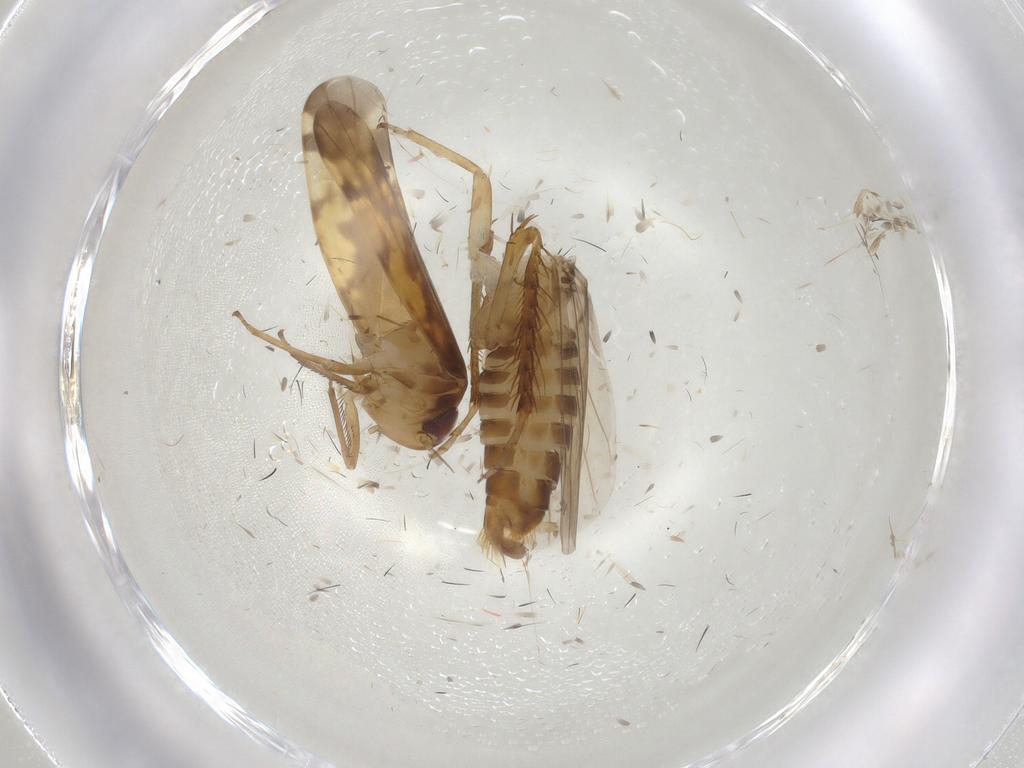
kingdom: Animalia
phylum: Arthropoda
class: Insecta
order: Hemiptera
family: Cicadellidae
